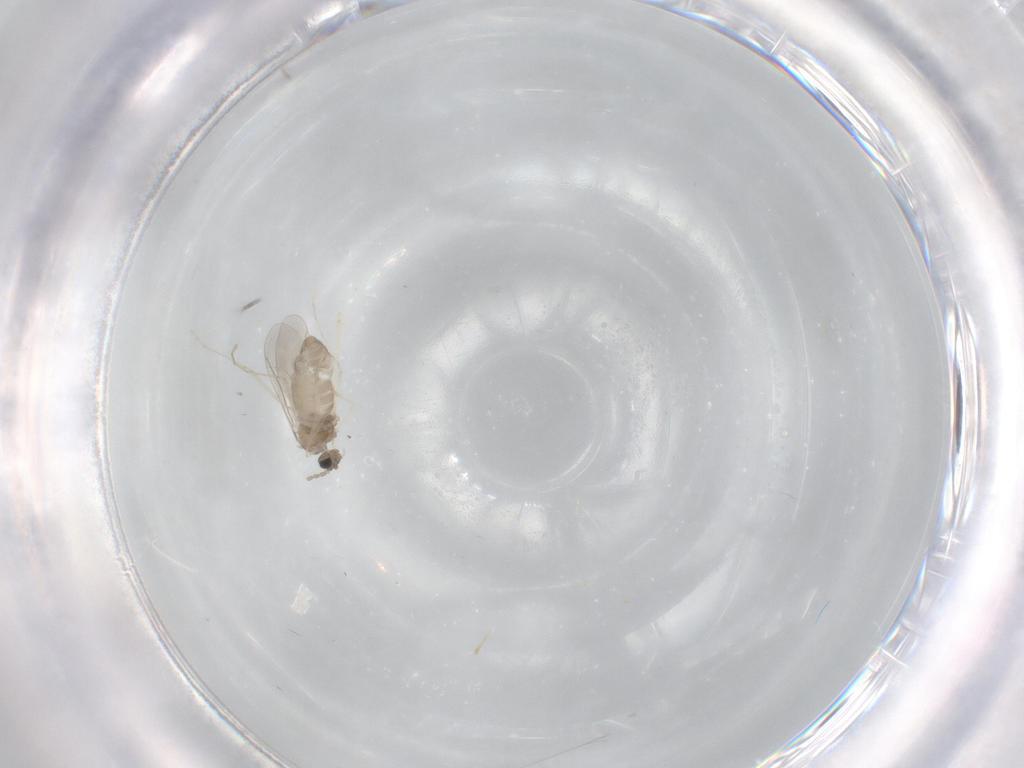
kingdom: Animalia
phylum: Arthropoda
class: Insecta
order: Diptera
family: Cecidomyiidae
